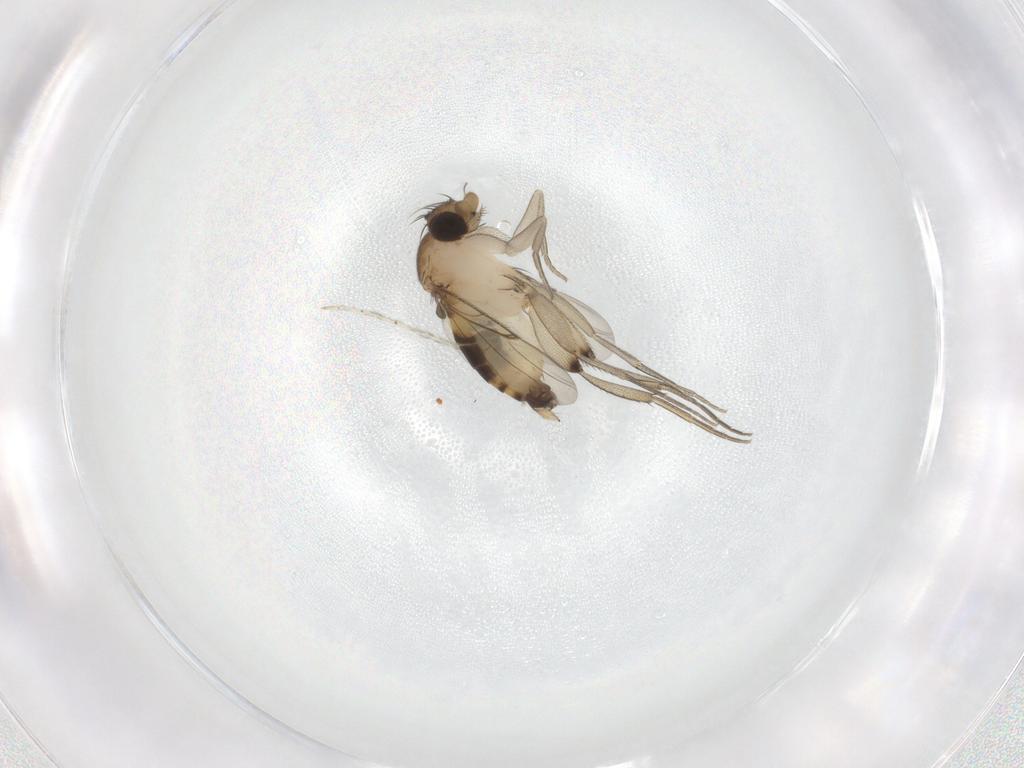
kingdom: Animalia
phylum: Arthropoda
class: Insecta
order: Diptera
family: Phoridae
